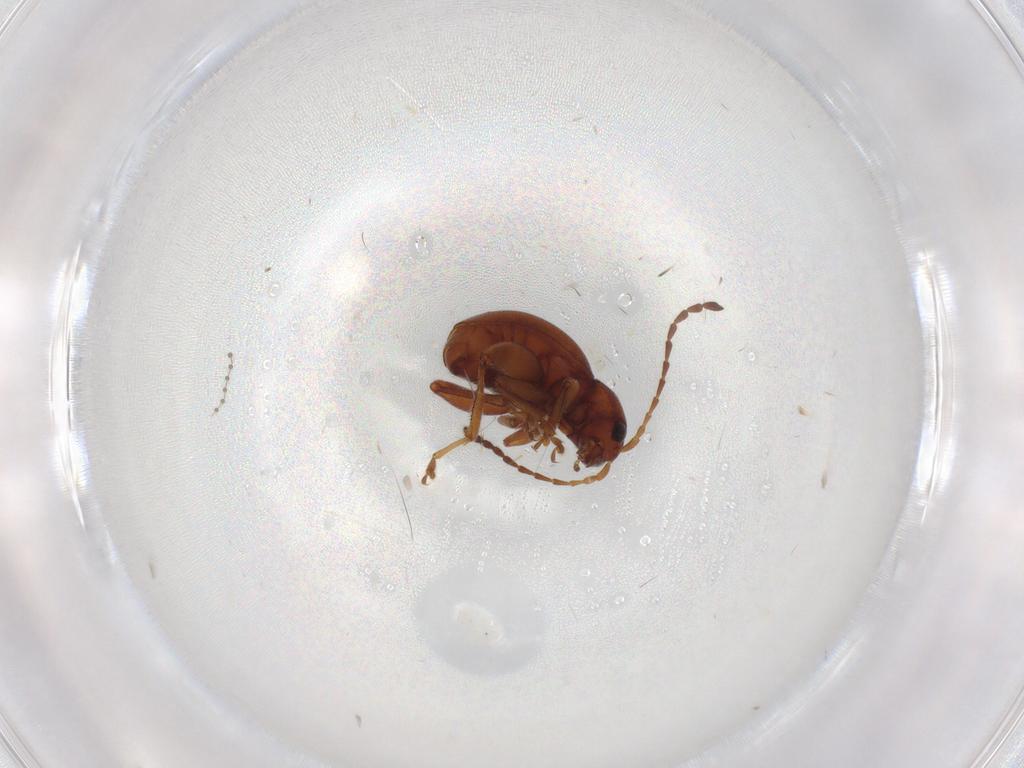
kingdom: Animalia
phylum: Arthropoda
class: Insecta
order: Coleoptera
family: Chrysomelidae
